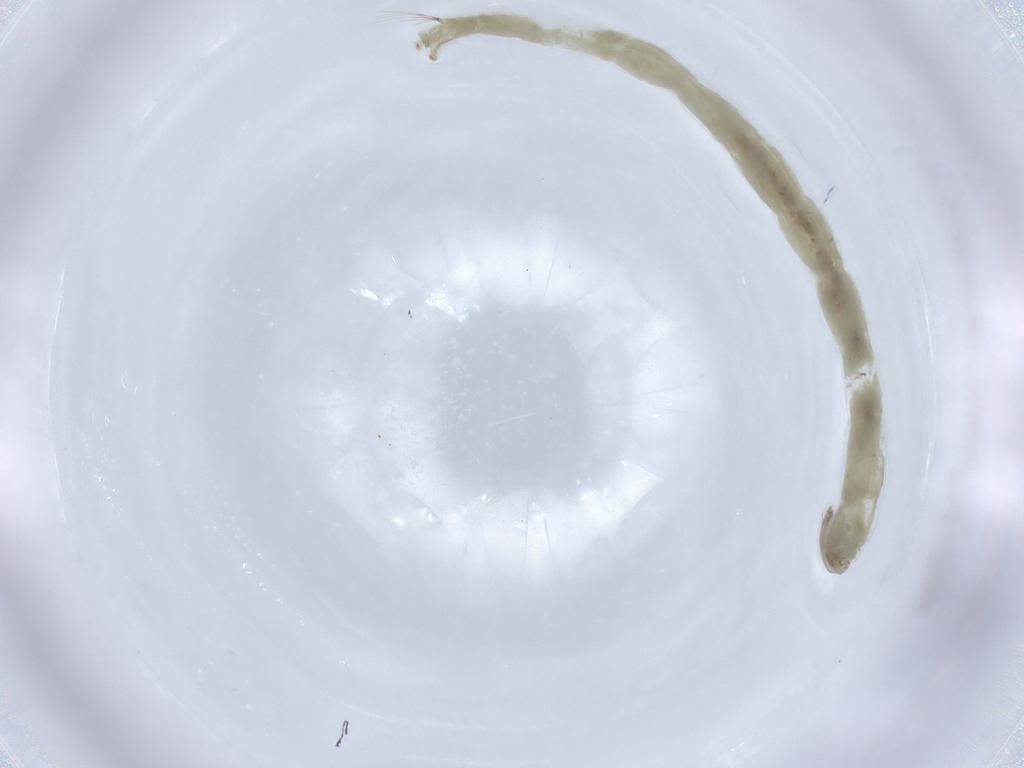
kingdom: Animalia
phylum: Arthropoda
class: Insecta
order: Diptera
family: Chironomidae
